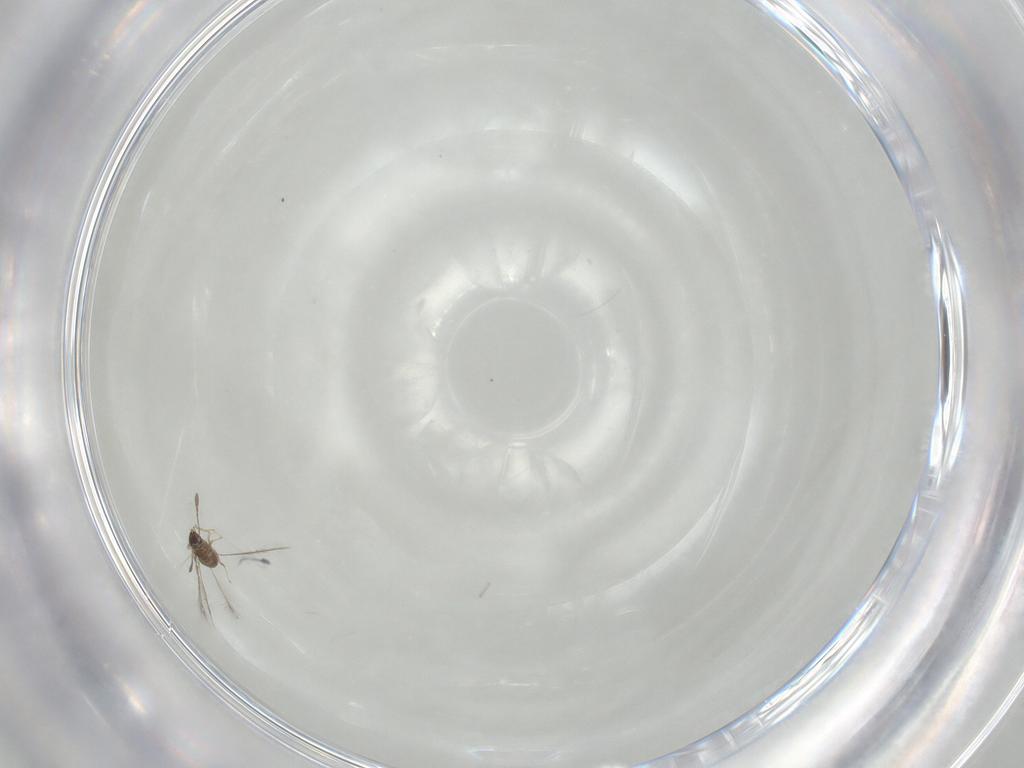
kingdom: Animalia
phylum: Arthropoda
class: Insecta
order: Hymenoptera
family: Encyrtidae
